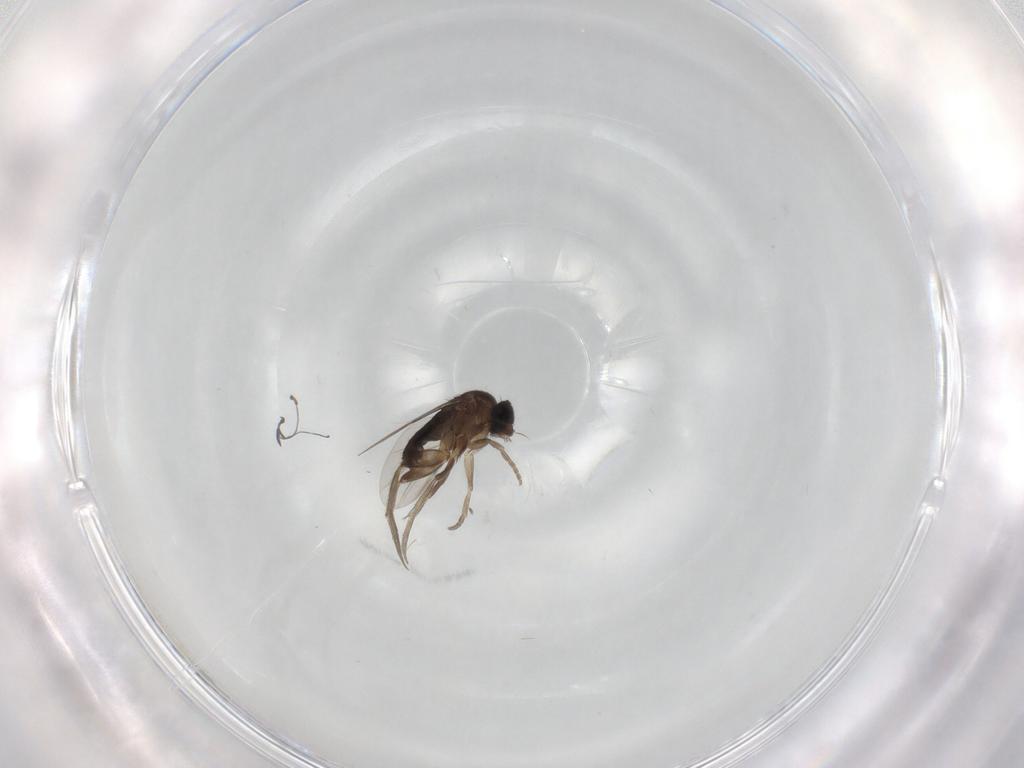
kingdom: Animalia
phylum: Arthropoda
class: Insecta
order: Diptera
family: Phoridae
